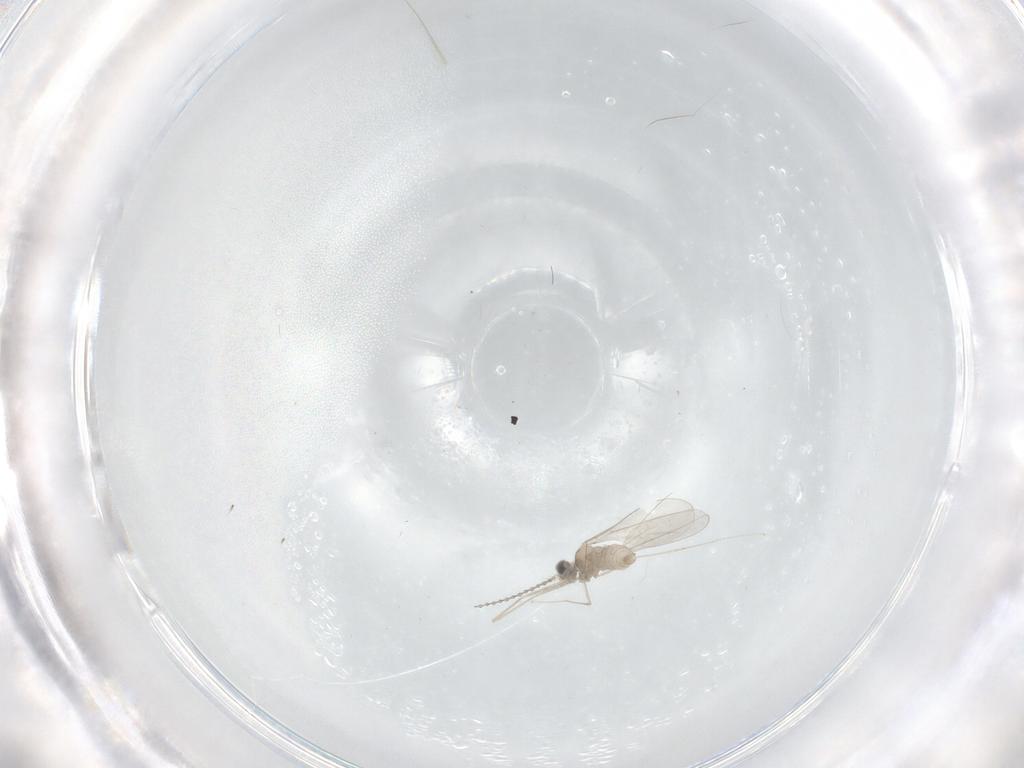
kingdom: Animalia
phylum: Arthropoda
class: Insecta
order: Diptera
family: Cecidomyiidae
